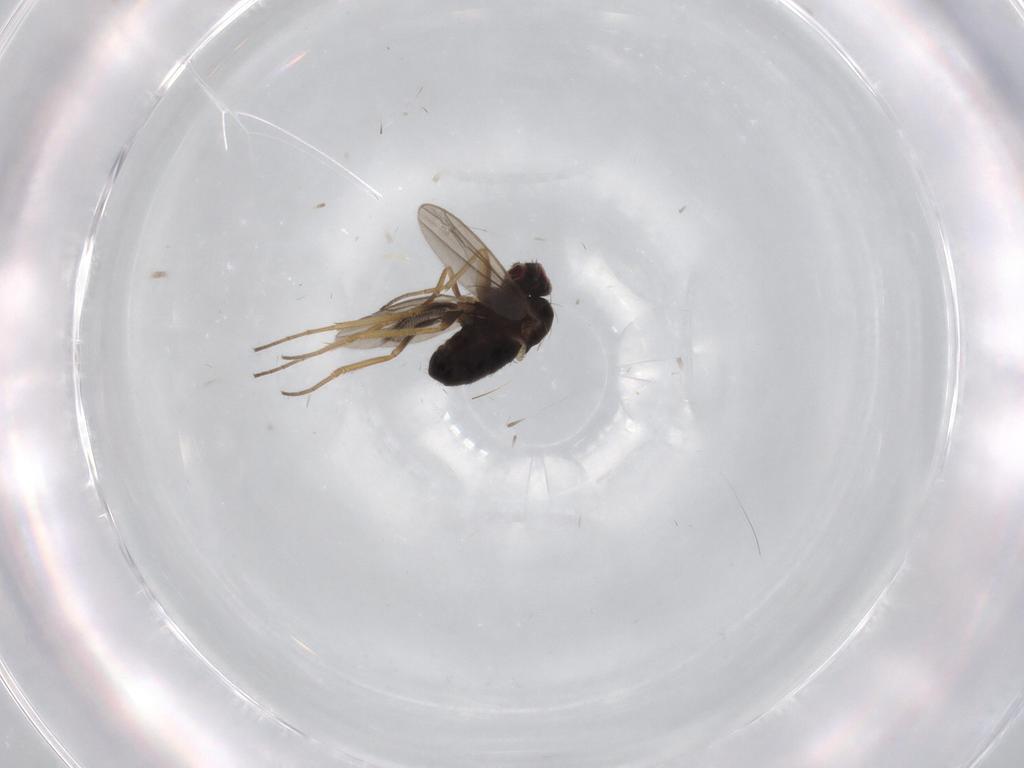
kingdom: Animalia
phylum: Arthropoda
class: Insecta
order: Diptera
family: Dolichopodidae
